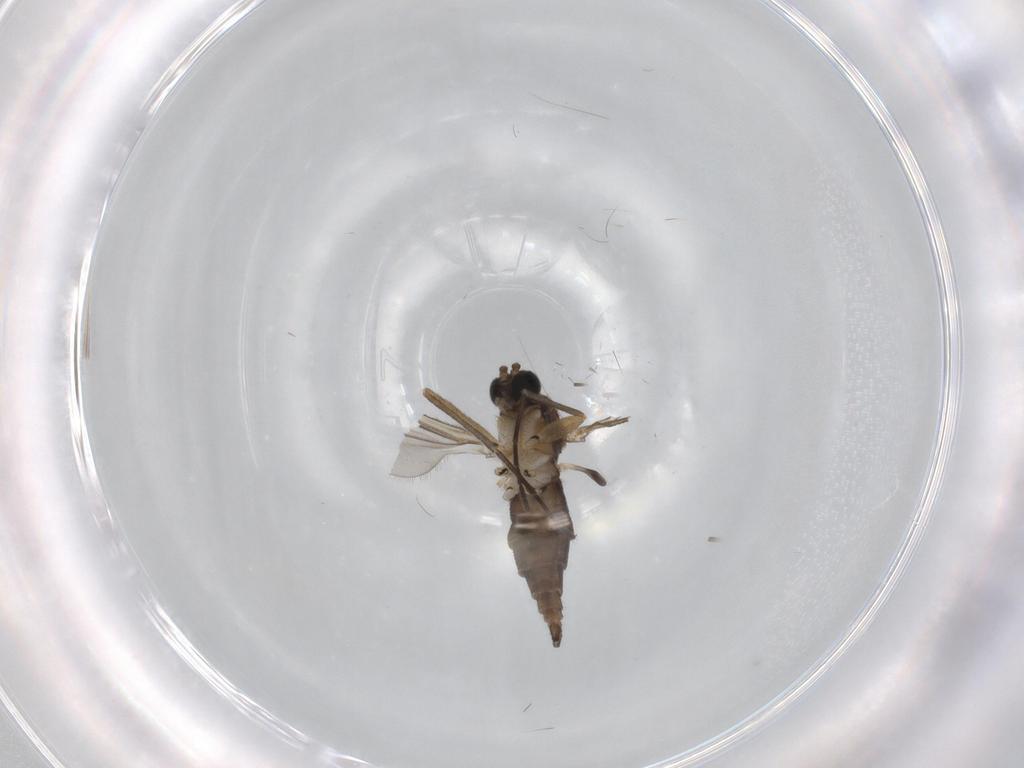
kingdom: Animalia
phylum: Arthropoda
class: Insecta
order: Diptera
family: Sciaridae
